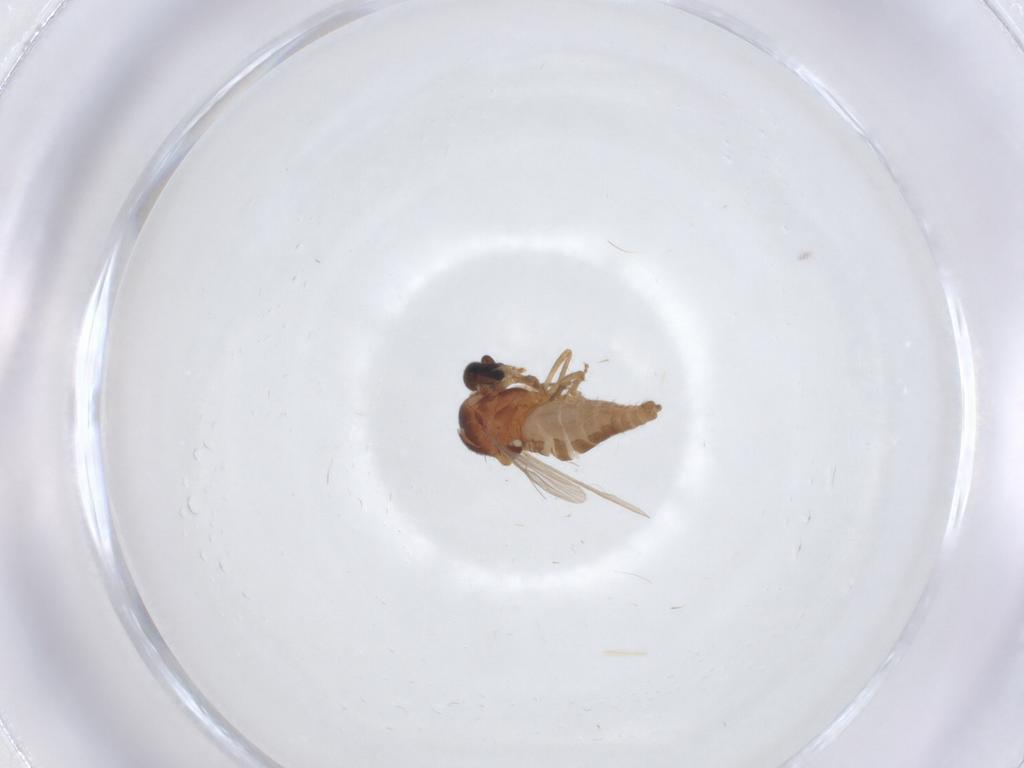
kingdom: Animalia
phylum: Arthropoda
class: Insecta
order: Diptera
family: Ceratopogonidae
